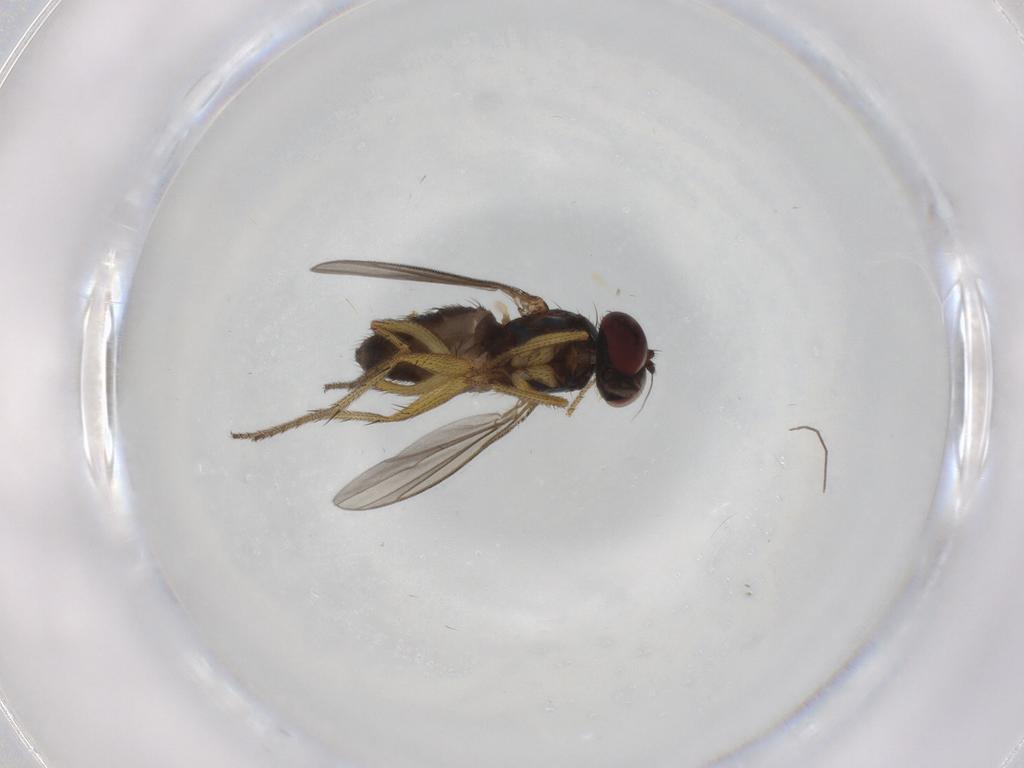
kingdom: Animalia
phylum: Arthropoda
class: Insecta
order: Diptera
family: Dolichopodidae
